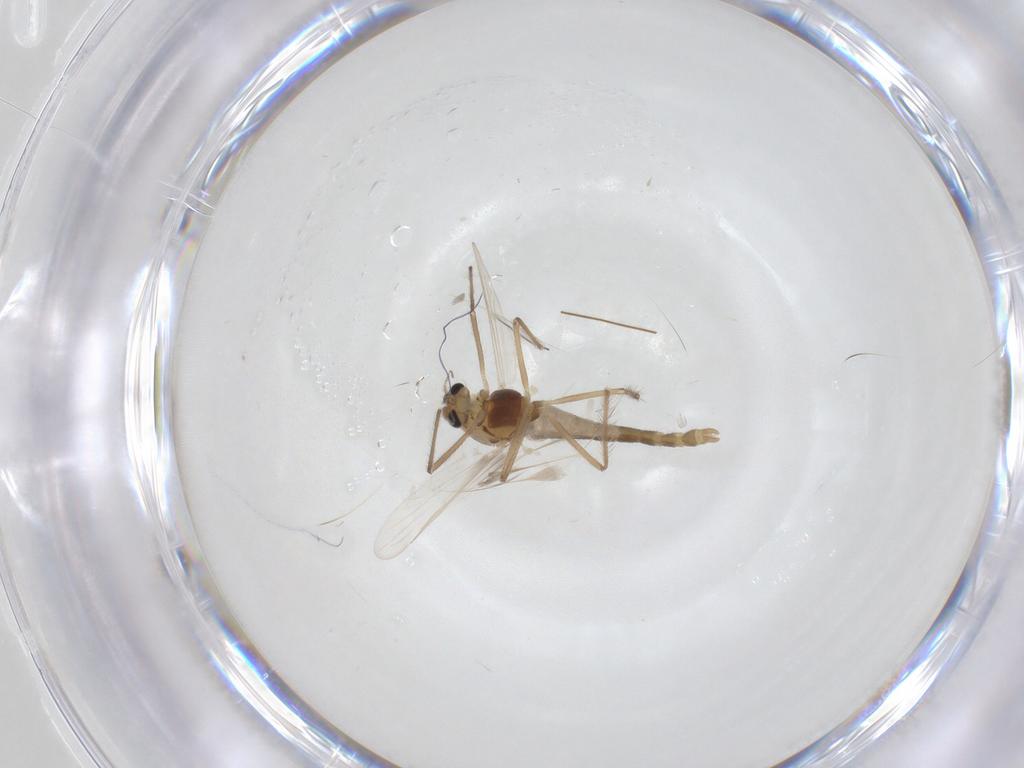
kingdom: Animalia
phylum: Arthropoda
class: Insecta
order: Diptera
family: Chironomidae
